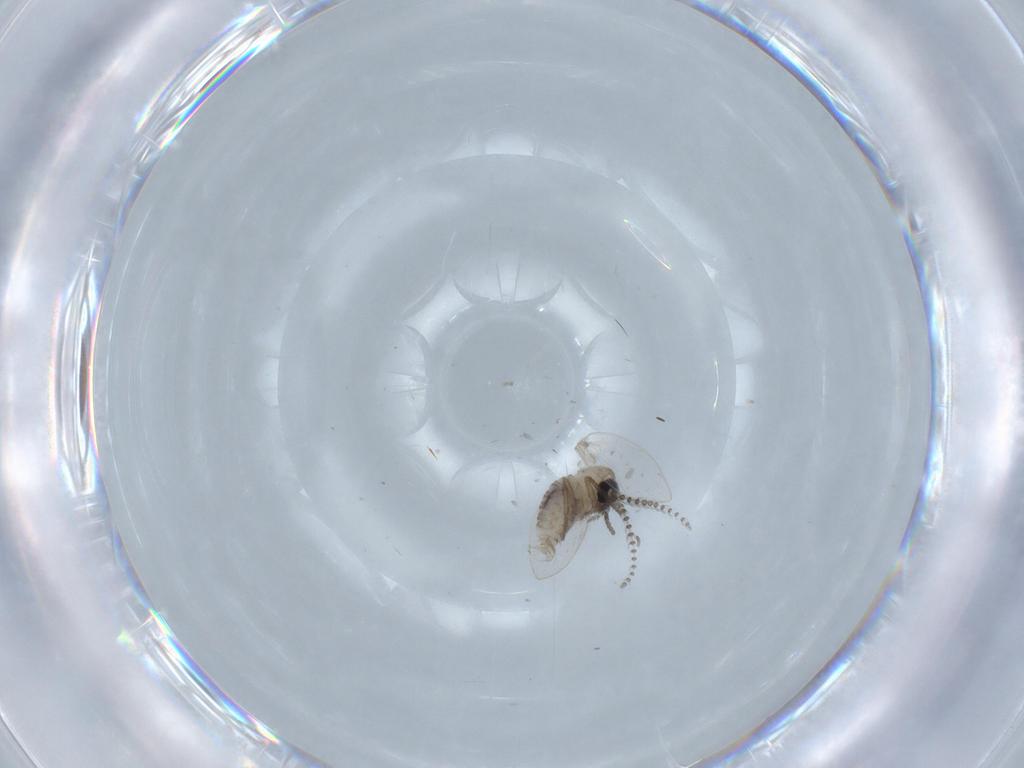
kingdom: Animalia
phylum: Arthropoda
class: Insecta
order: Diptera
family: Psychodidae
